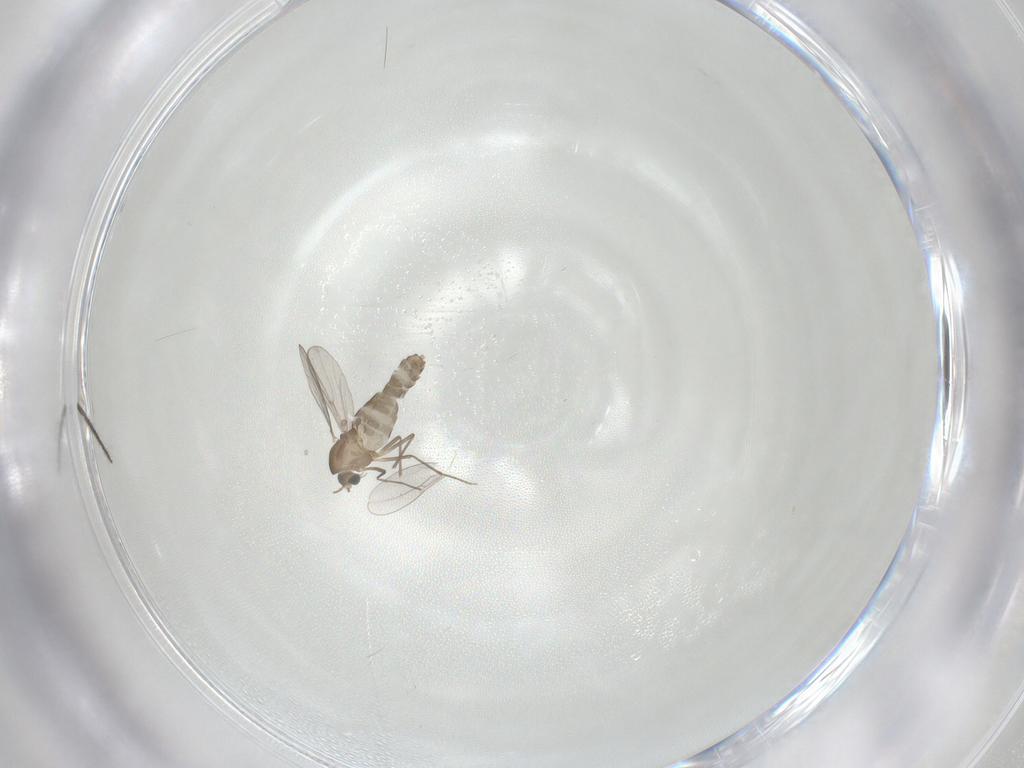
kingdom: Animalia
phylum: Arthropoda
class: Insecta
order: Diptera
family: Chironomidae
